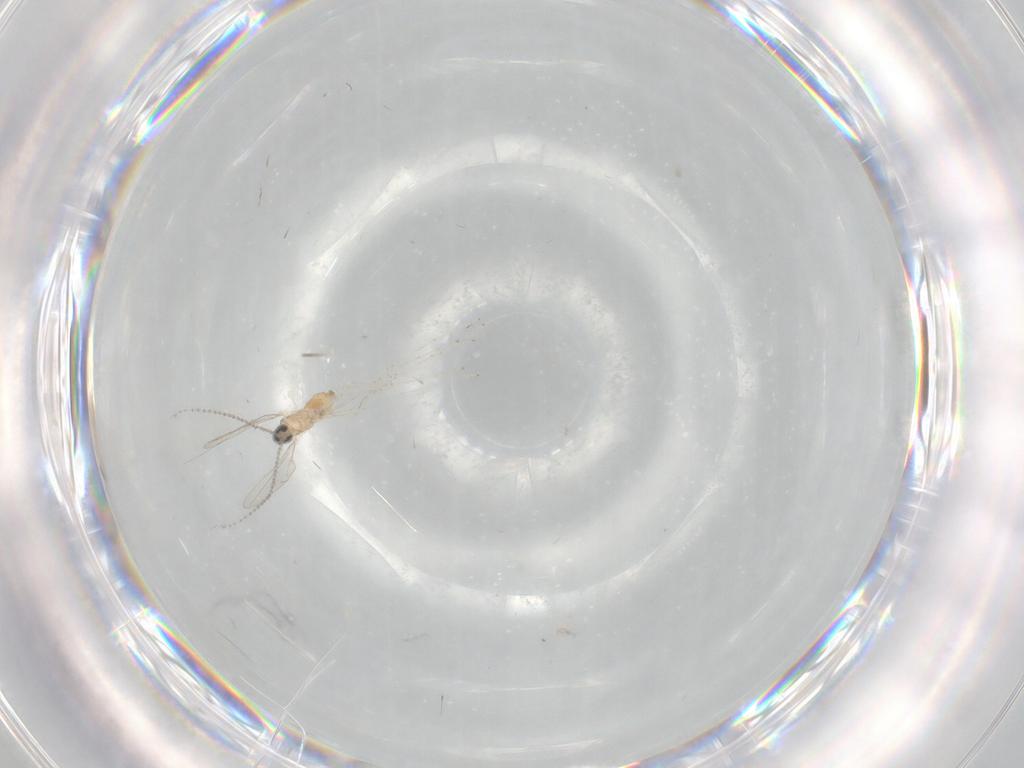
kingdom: Animalia
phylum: Arthropoda
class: Insecta
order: Diptera
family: Cecidomyiidae
